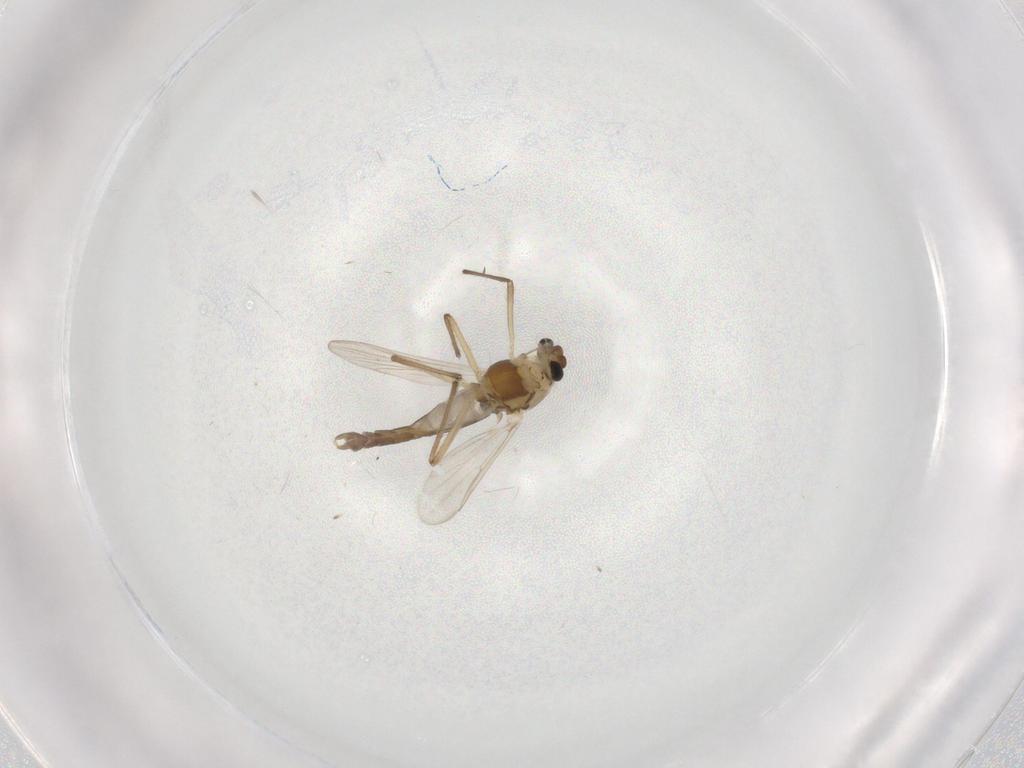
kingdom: Animalia
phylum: Arthropoda
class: Insecta
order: Diptera
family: Chironomidae
